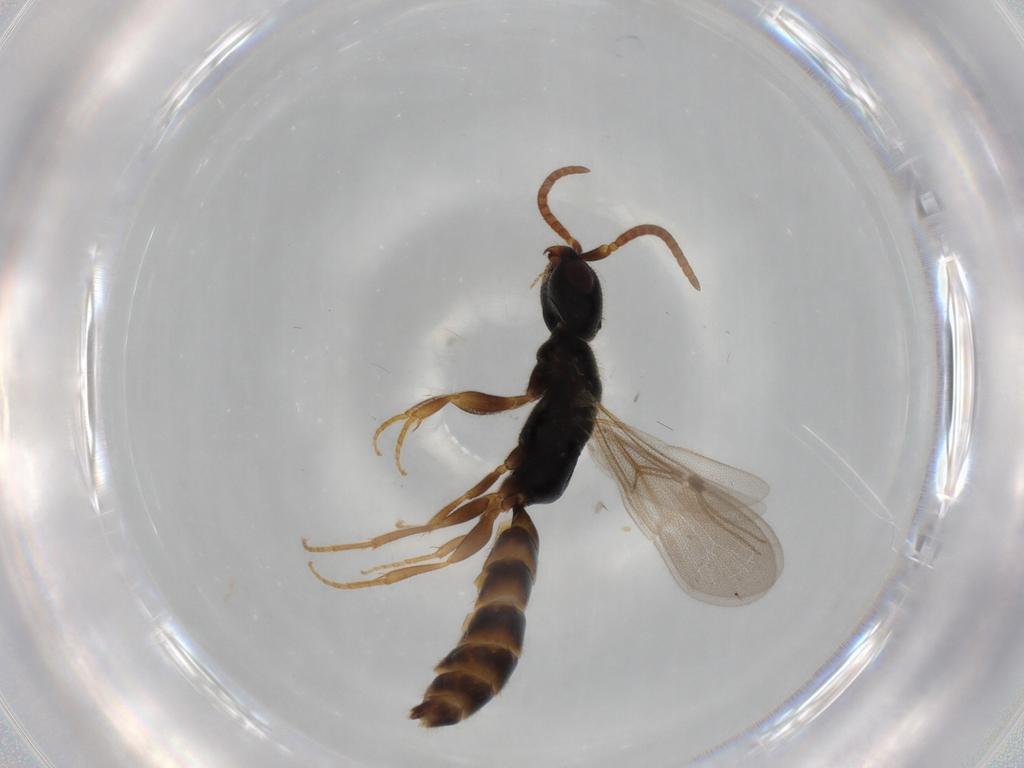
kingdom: Animalia
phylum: Arthropoda
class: Insecta
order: Hymenoptera
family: Bethylidae
